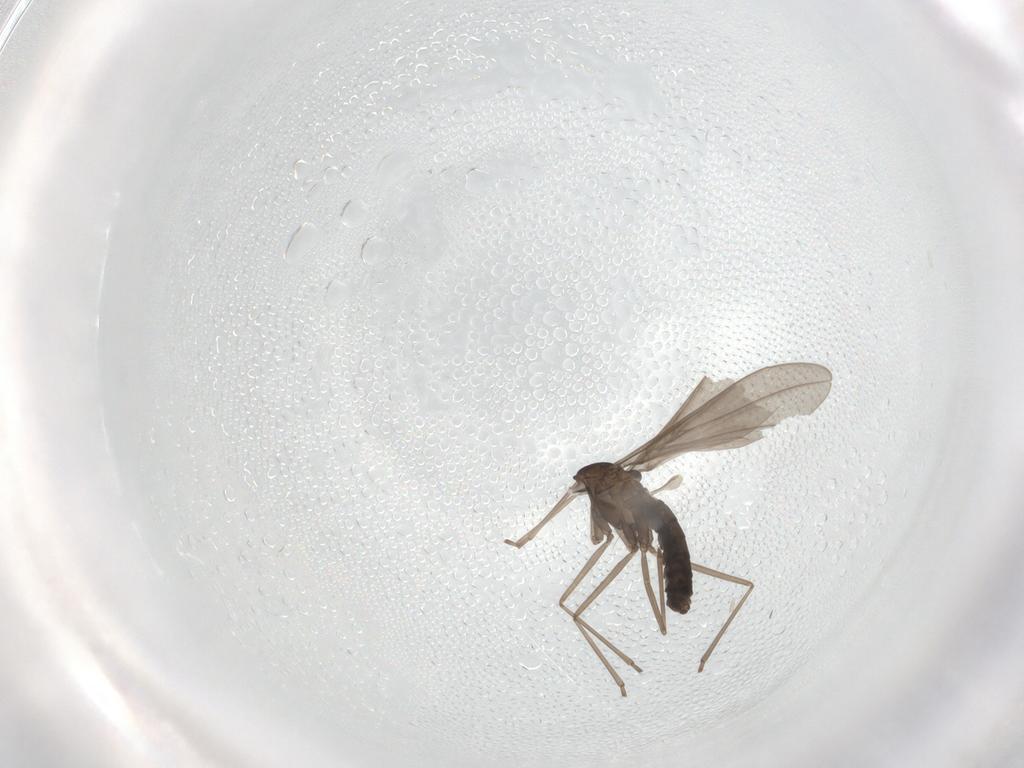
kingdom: Animalia
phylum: Arthropoda
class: Insecta
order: Diptera
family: Cecidomyiidae
